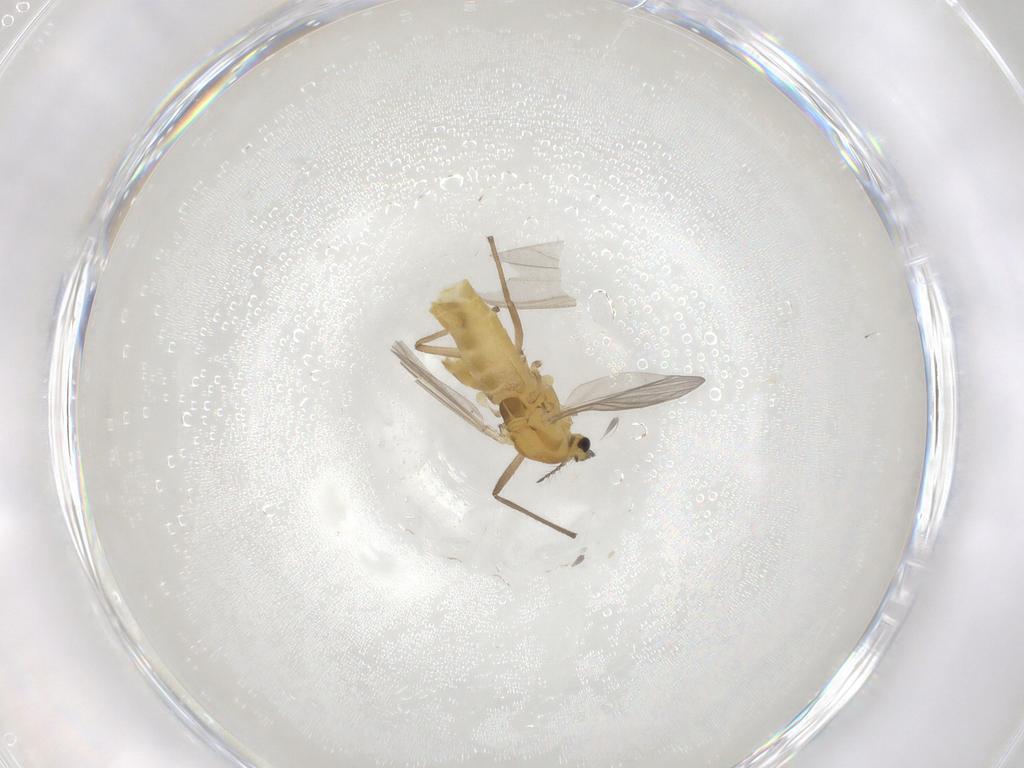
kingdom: Animalia
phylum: Arthropoda
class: Insecta
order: Diptera
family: Chironomidae
